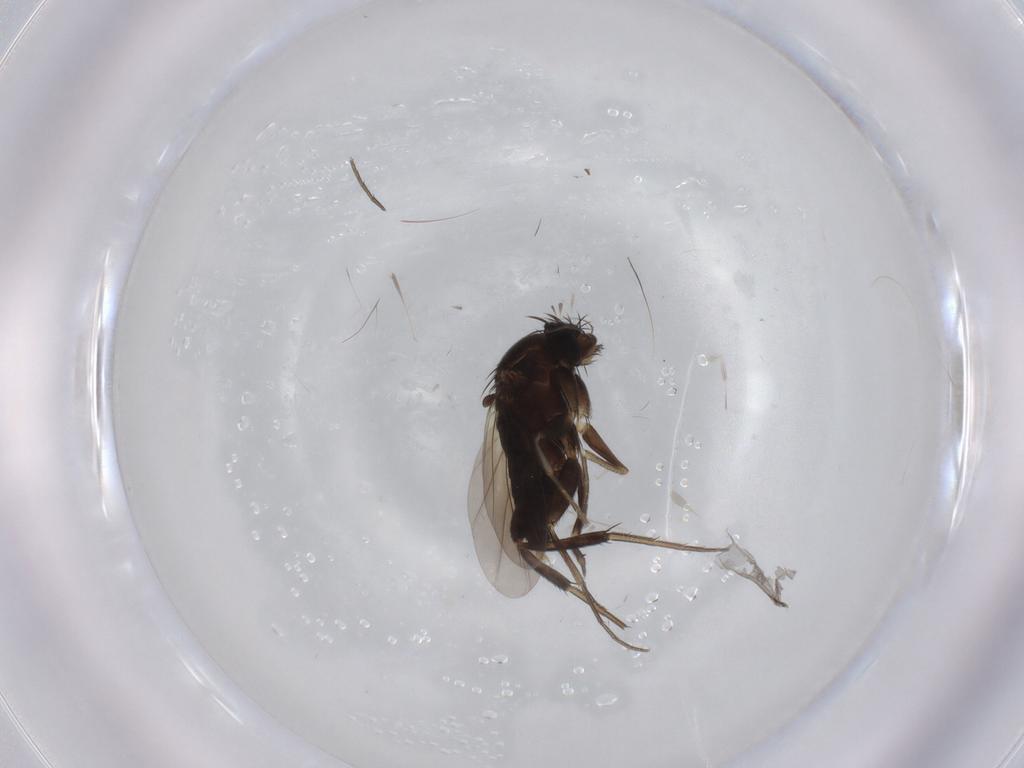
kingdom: Animalia
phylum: Arthropoda
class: Insecta
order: Diptera
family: Phoridae
